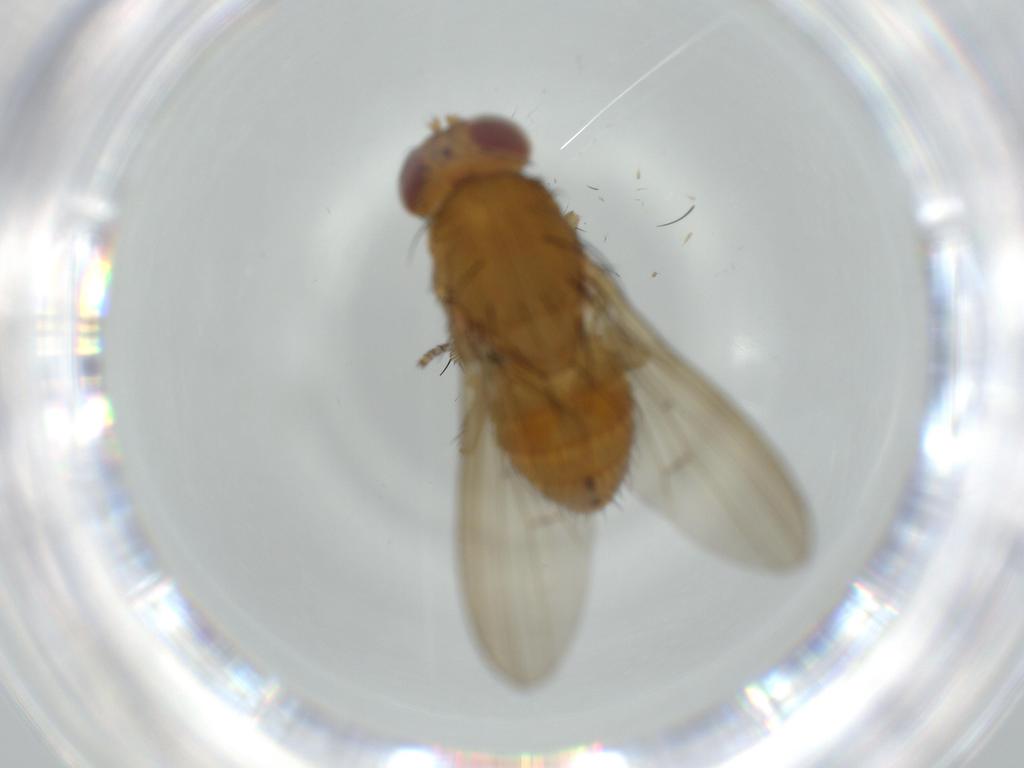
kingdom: Animalia
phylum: Arthropoda
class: Insecta
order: Diptera
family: Sciaridae
